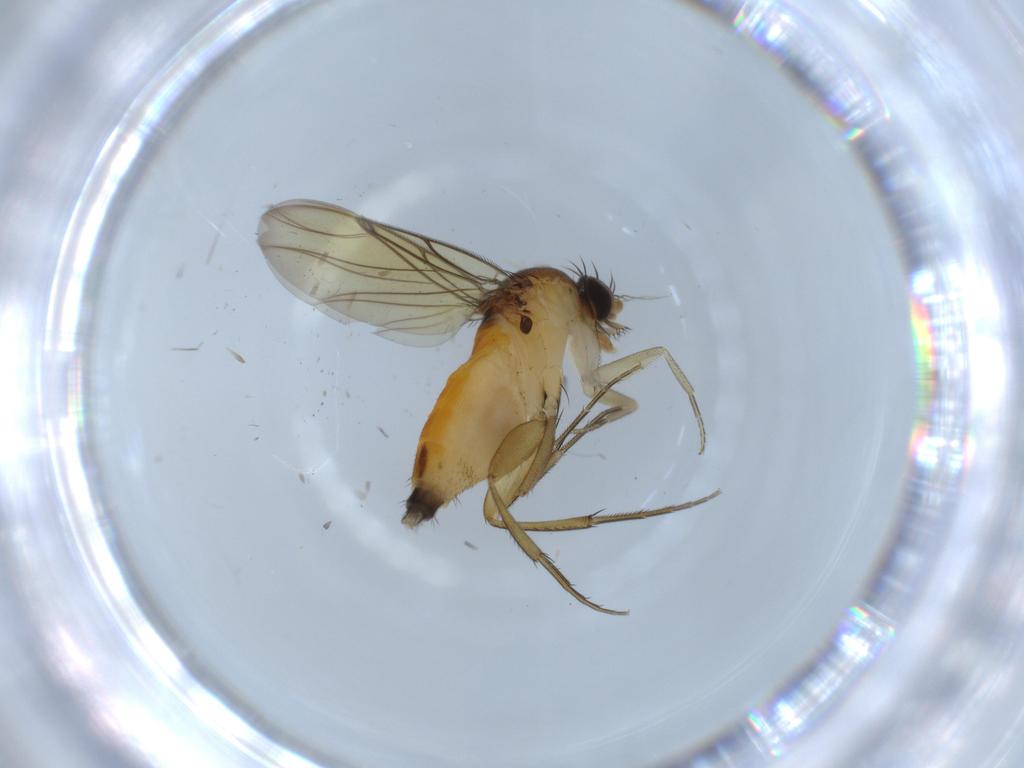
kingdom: Animalia
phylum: Arthropoda
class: Insecta
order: Diptera
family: Phoridae
